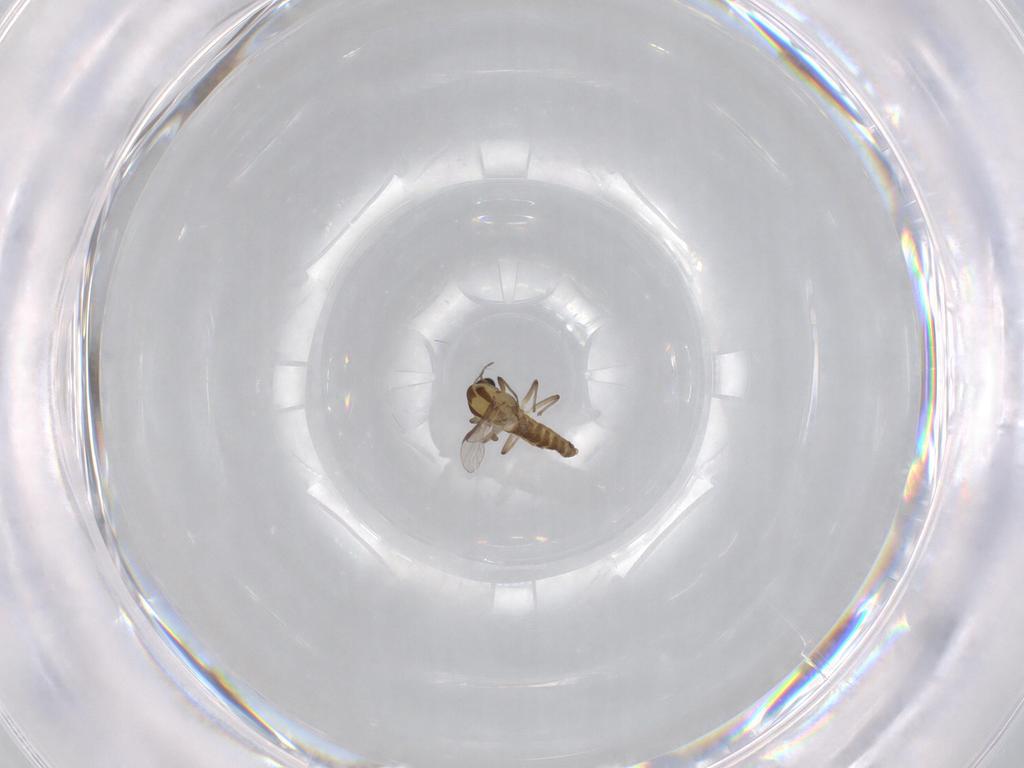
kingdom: Animalia
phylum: Arthropoda
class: Insecta
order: Diptera
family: Chironomidae
